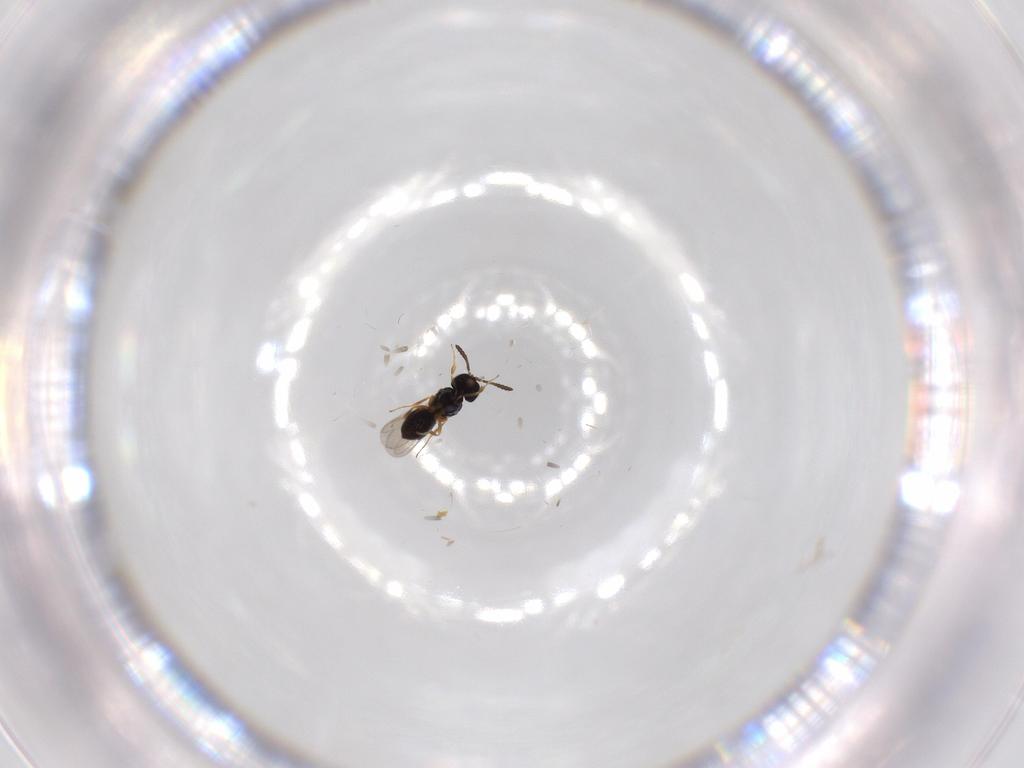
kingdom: Animalia
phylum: Arthropoda
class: Insecta
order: Hymenoptera
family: Scelionidae
